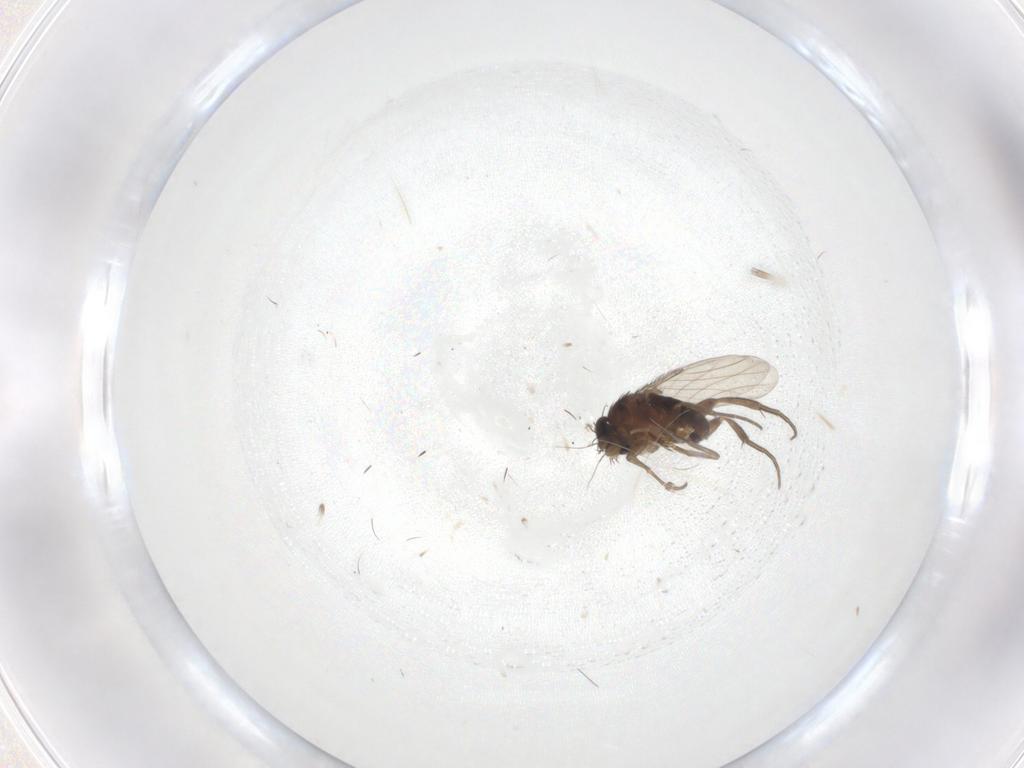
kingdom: Animalia
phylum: Arthropoda
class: Insecta
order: Diptera
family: Phoridae
